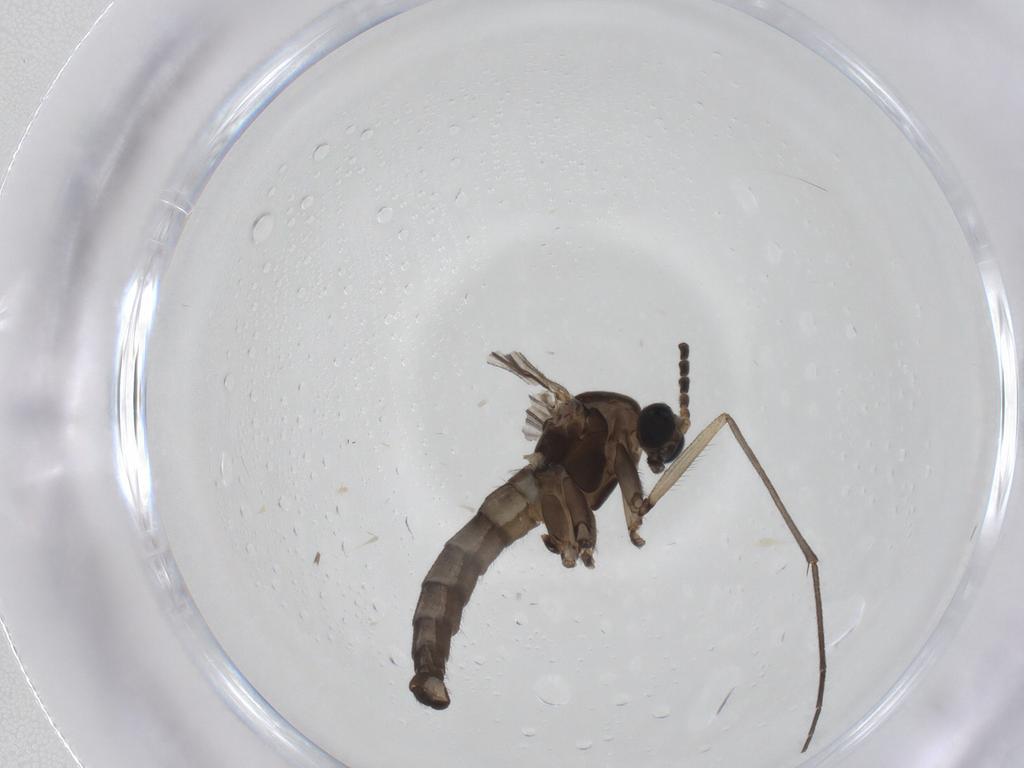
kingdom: Animalia
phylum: Arthropoda
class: Insecta
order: Diptera
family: Sciaridae
